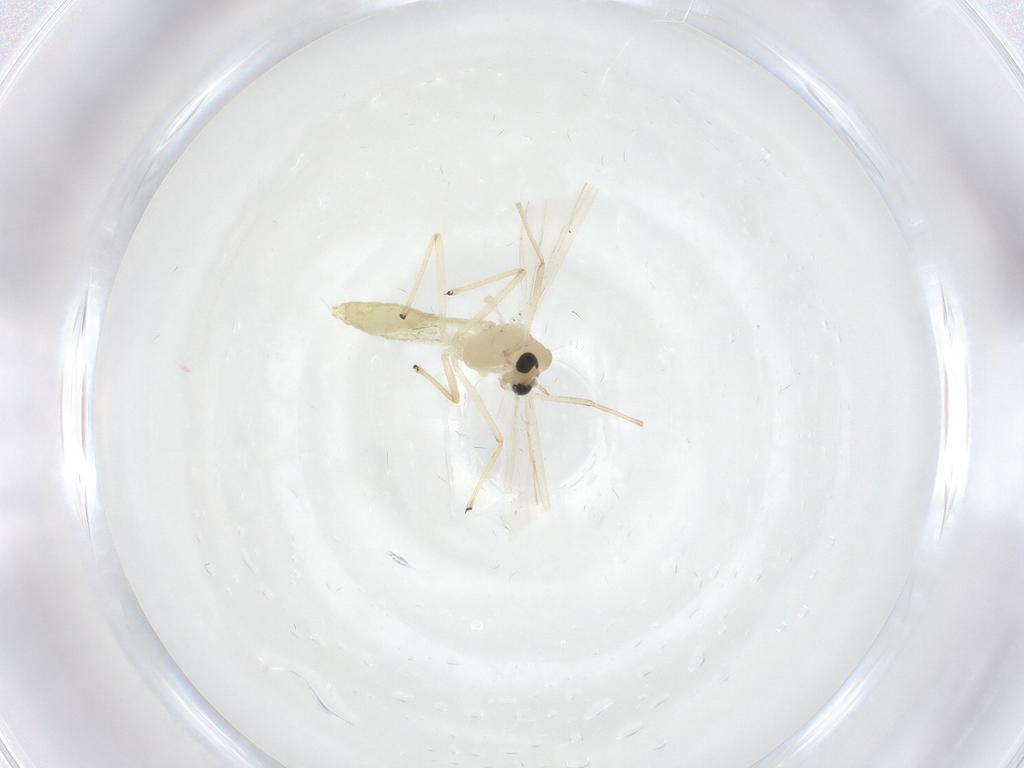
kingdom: Animalia
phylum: Arthropoda
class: Insecta
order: Diptera
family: Chironomidae
